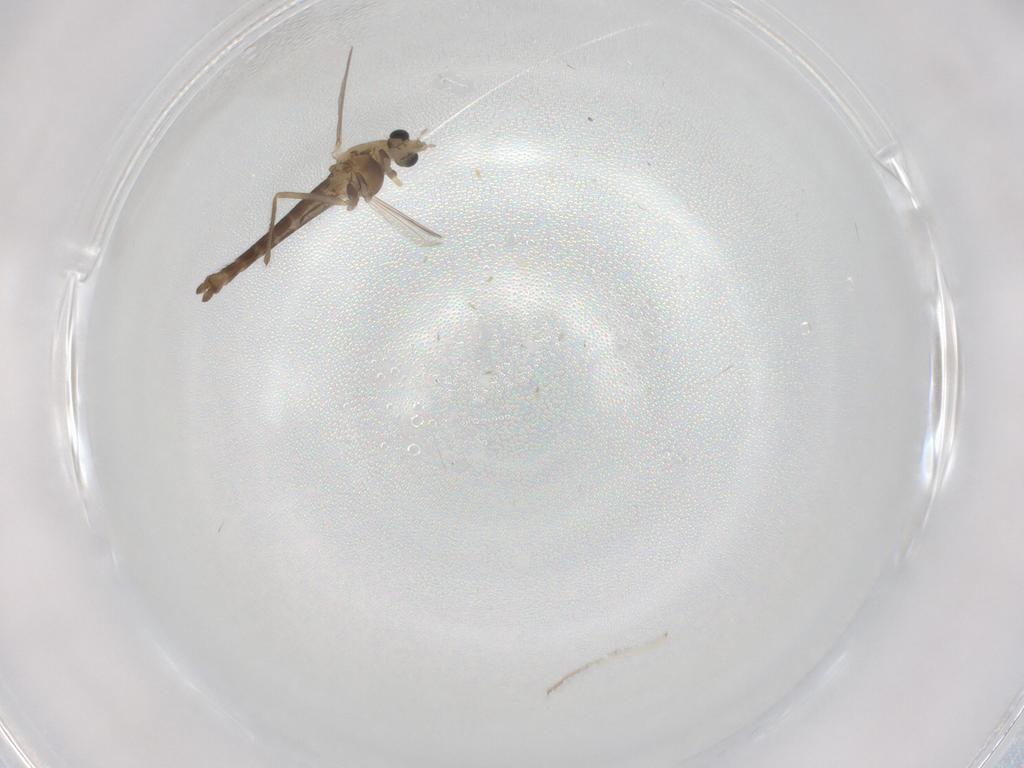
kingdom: Animalia
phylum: Arthropoda
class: Insecta
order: Diptera
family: Chironomidae
